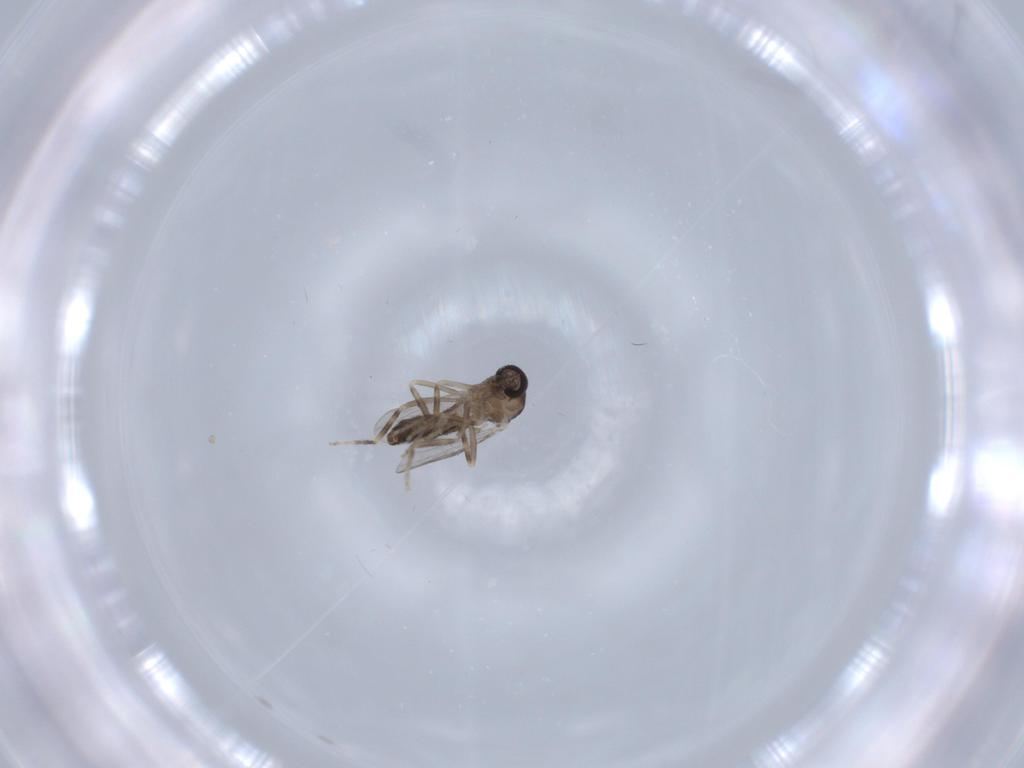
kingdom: Animalia
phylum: Arthropoda
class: Insecta
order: Diptera
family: Ceratopogonidae
